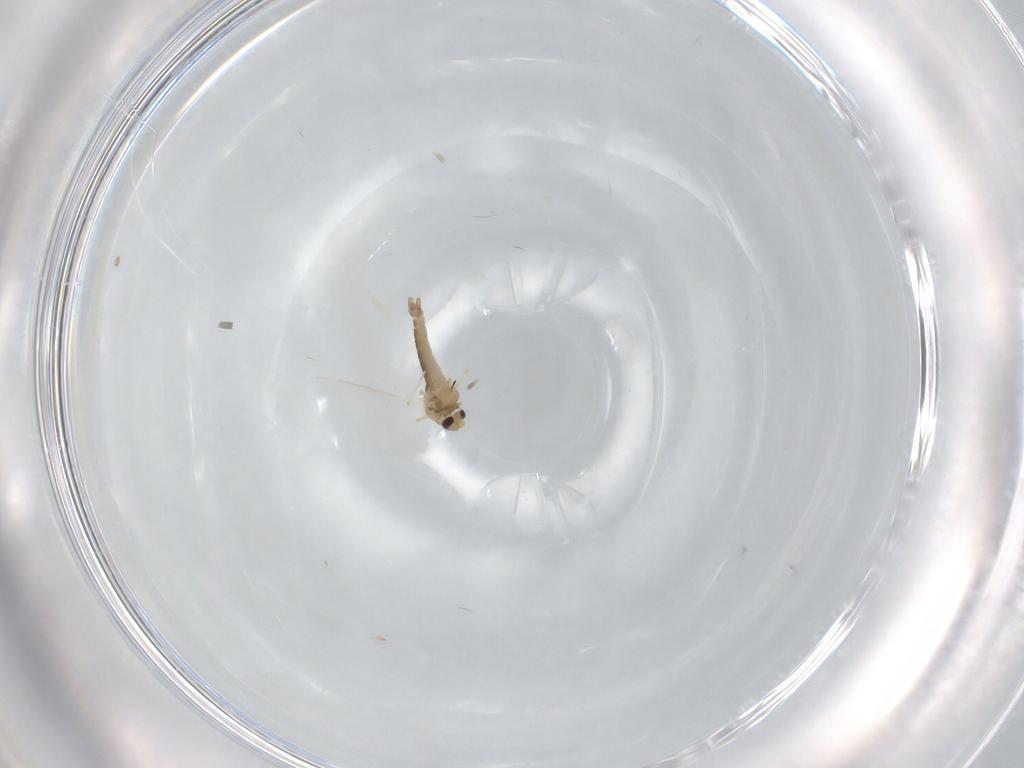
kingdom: Animalia
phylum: Arthropoda
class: Insecta
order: Diptera
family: Chironomidae
